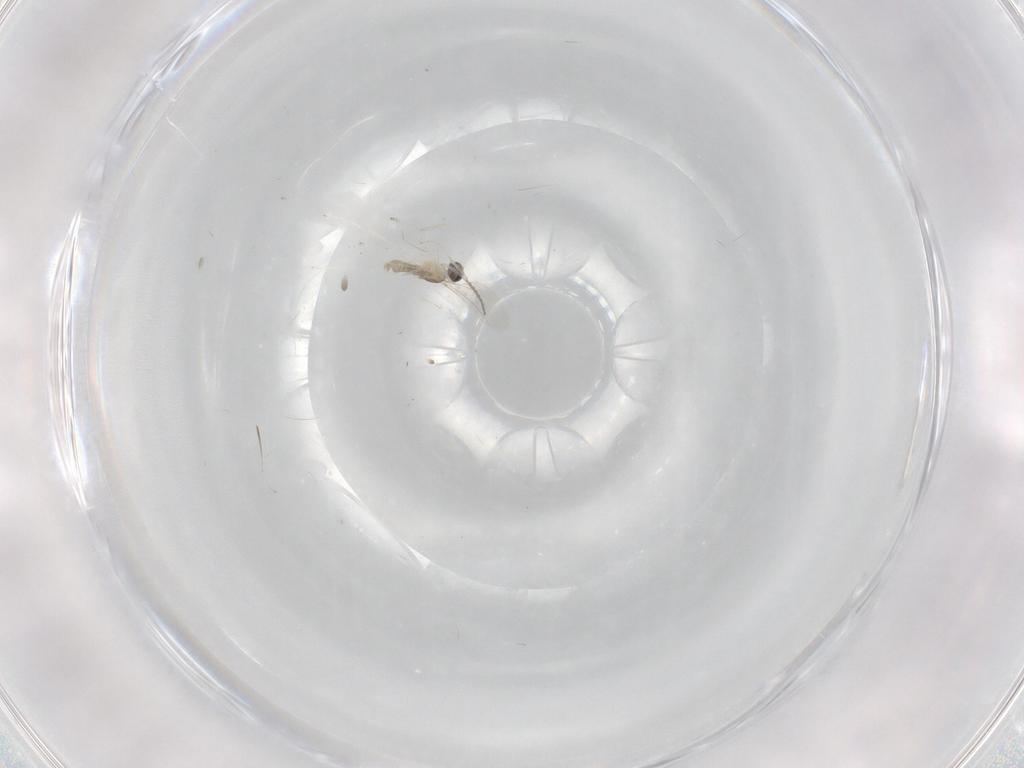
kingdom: Animalia
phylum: Arthropoda
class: Insecta
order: Diptera
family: Cecidomyiidae
